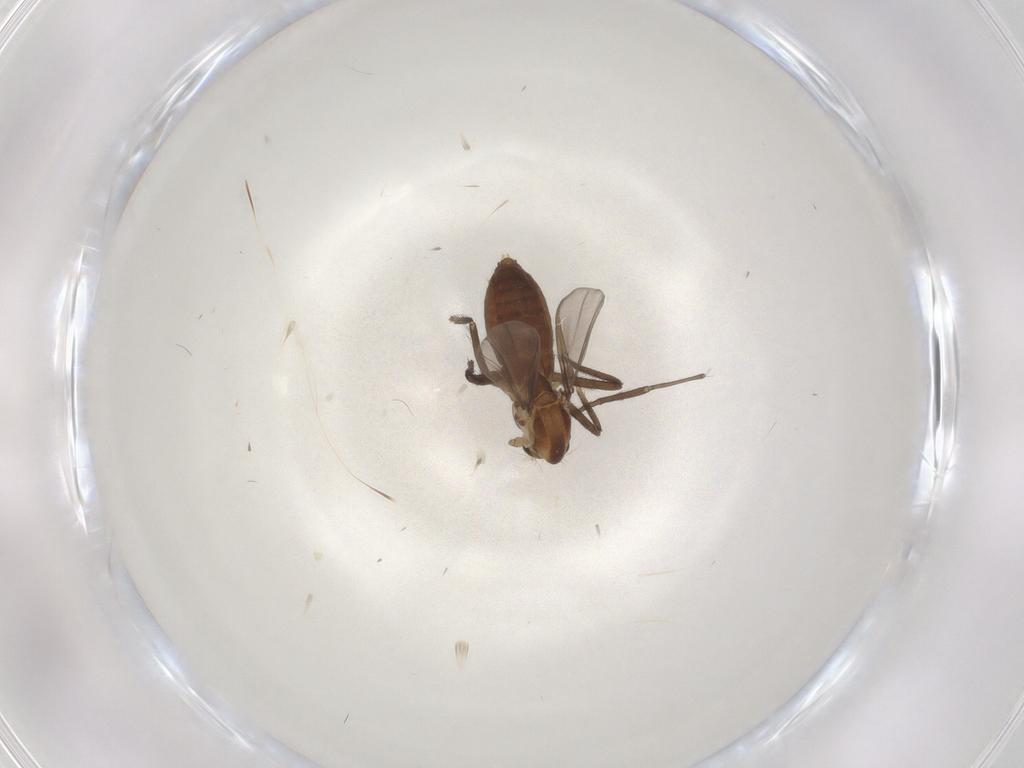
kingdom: Animalia
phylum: Arthropoda
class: Insecta
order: Diptera
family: Chironomidae
